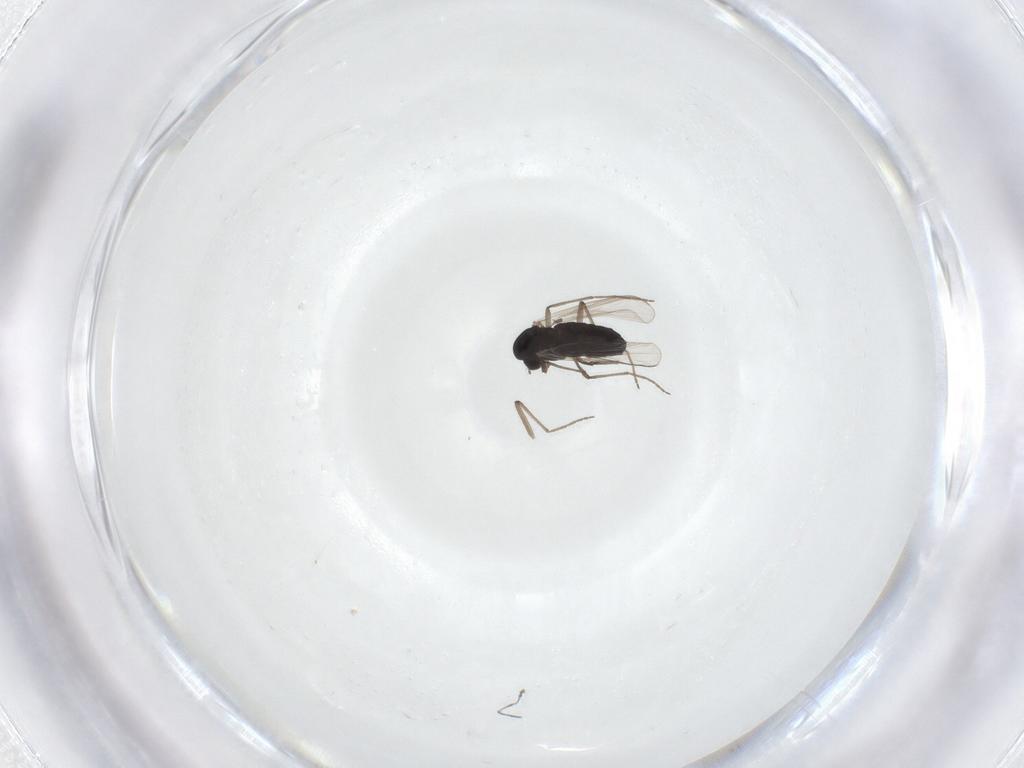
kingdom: Animalia
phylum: Arthropoda
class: Insecta
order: Diptera
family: Chironomidae
